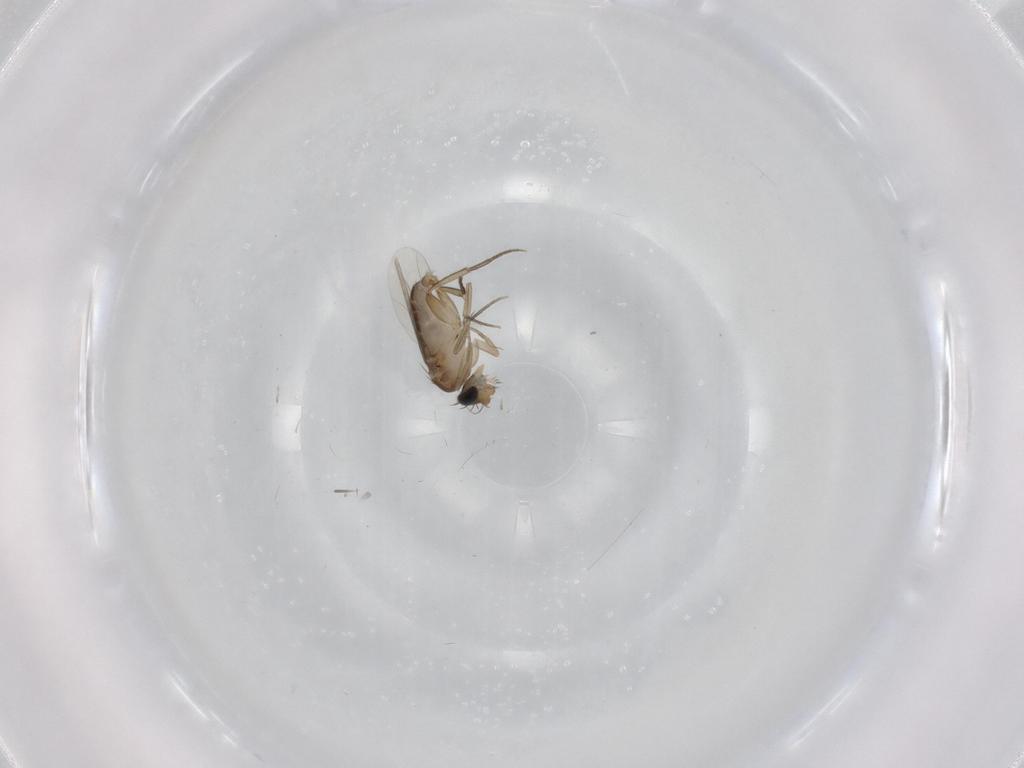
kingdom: Animalia
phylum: Arthropoda
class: Insecta
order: Diptera
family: Phoridae
